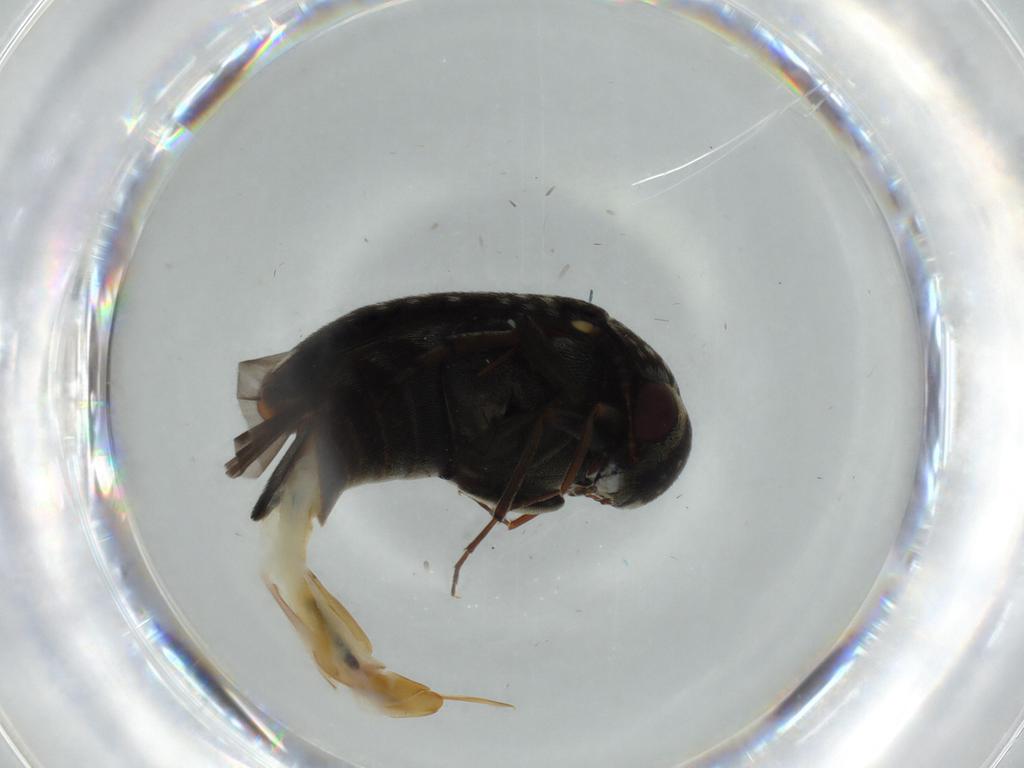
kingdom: Animalia
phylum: Arthropoda
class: Insecta
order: Coleoptera
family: Mordellidae
